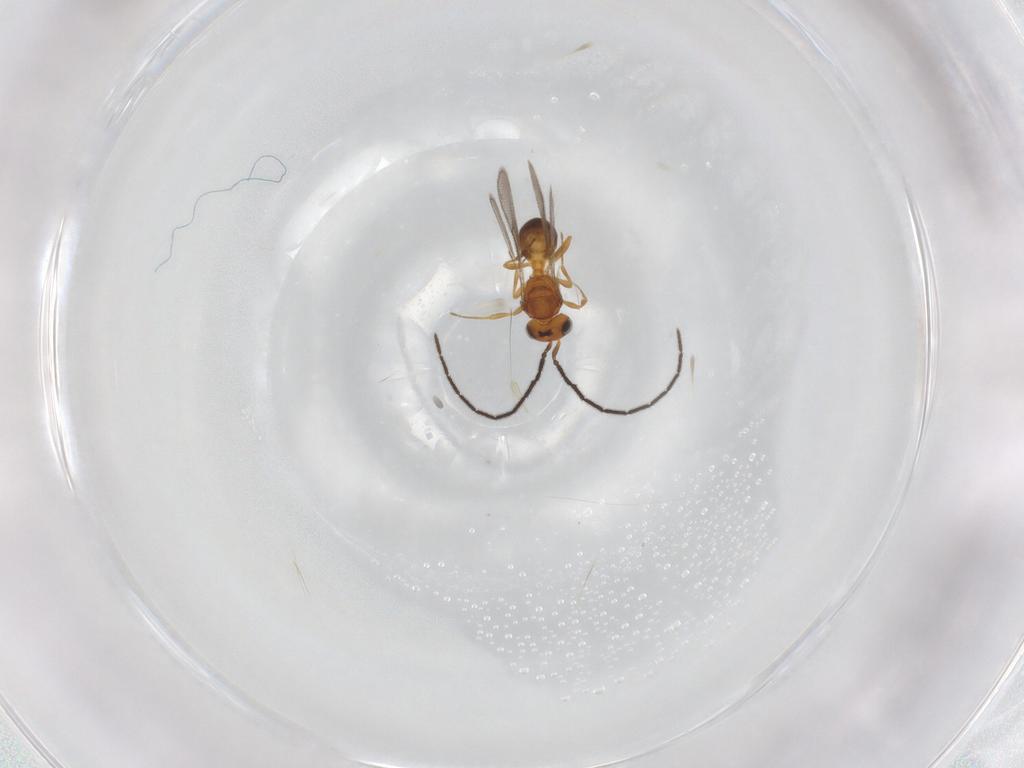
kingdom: Animalia
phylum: Arthropoda
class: Insecta
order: Hymenoptera
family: Scelionidae
